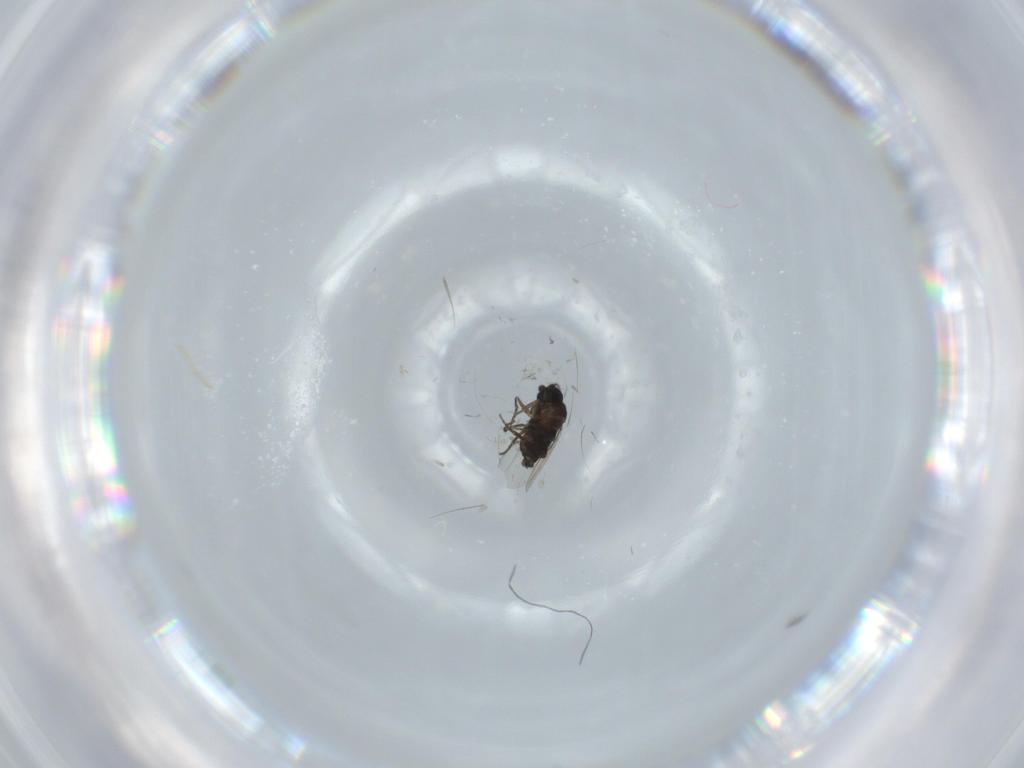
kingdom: Animalia
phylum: Arthropoda
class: Insecta
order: Diptera
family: Phoridae
